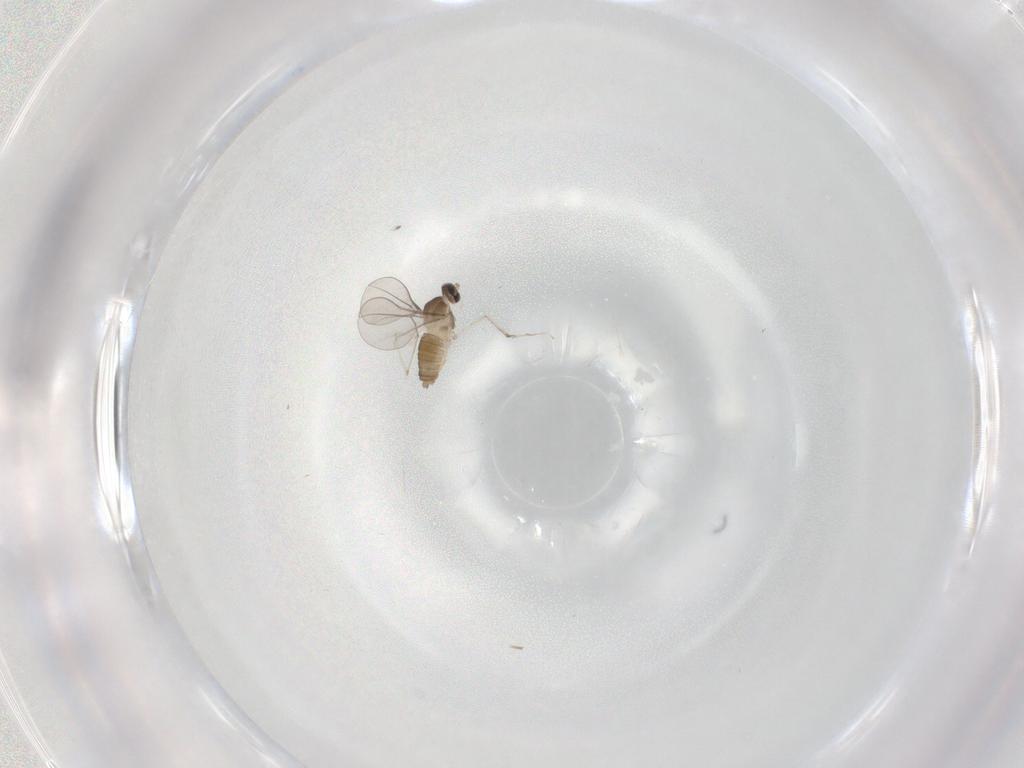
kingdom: Animalia
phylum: Arthropoda
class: Insecta
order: Diptera
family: Cecidomyiidae
